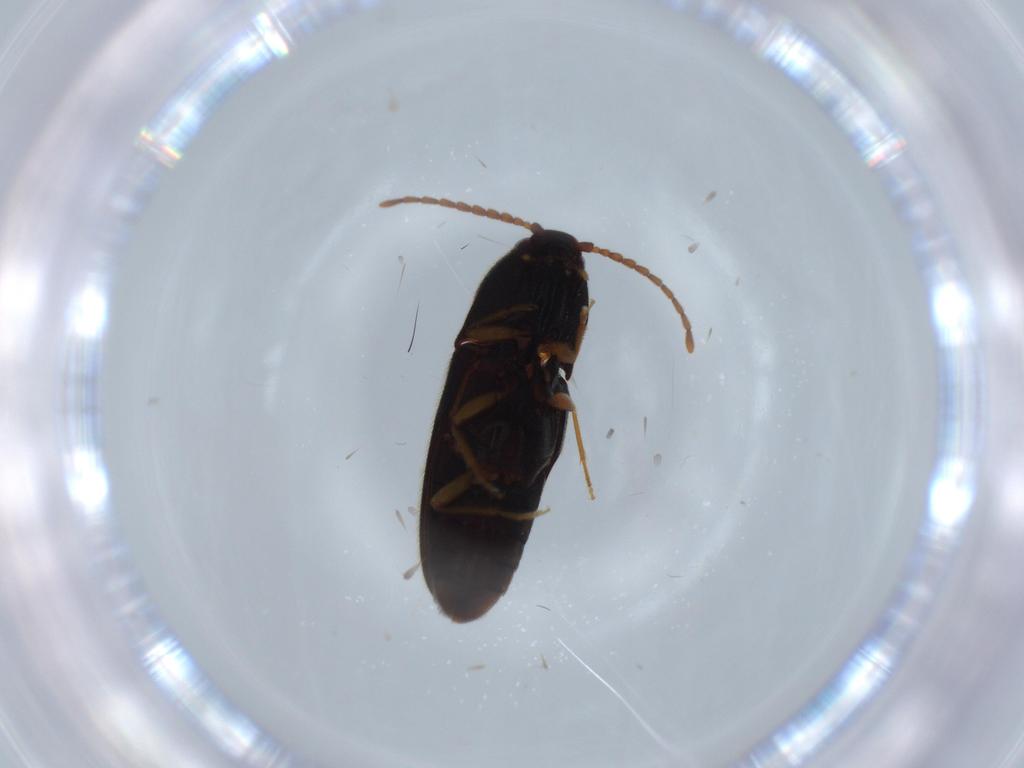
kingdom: Animalia
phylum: Arthropoda
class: Insecta
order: Coleoptera
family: Elateridae
